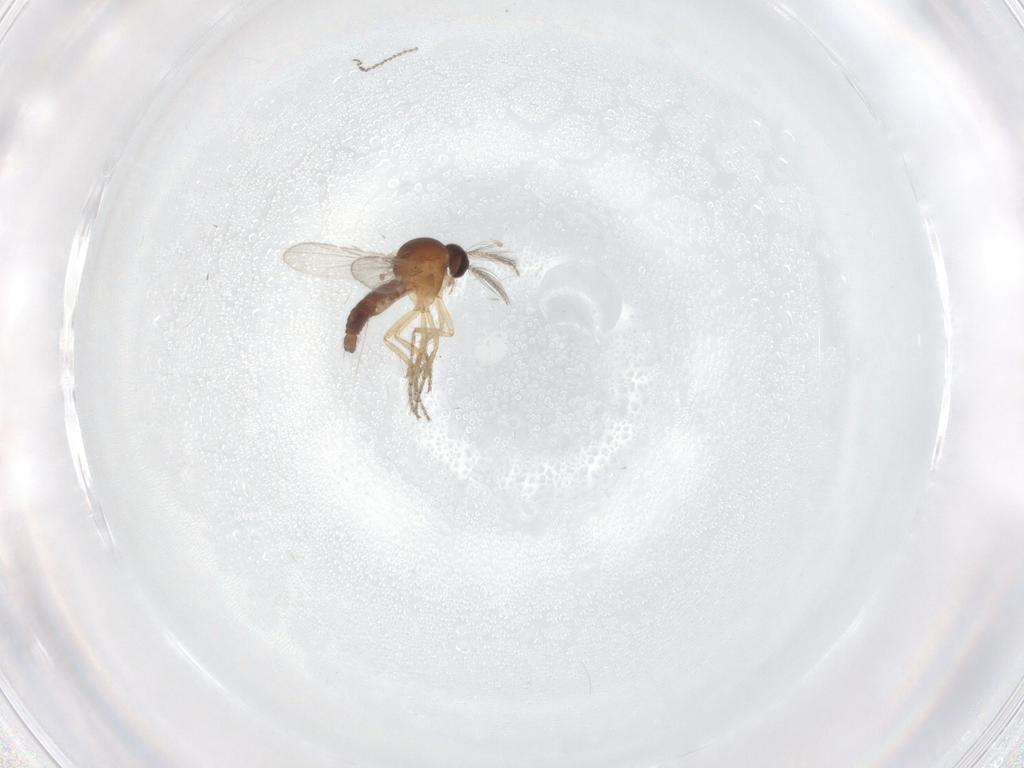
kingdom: Animalia
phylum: Arthropoda
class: Insecta
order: Diptera
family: Ceratopogonidae
